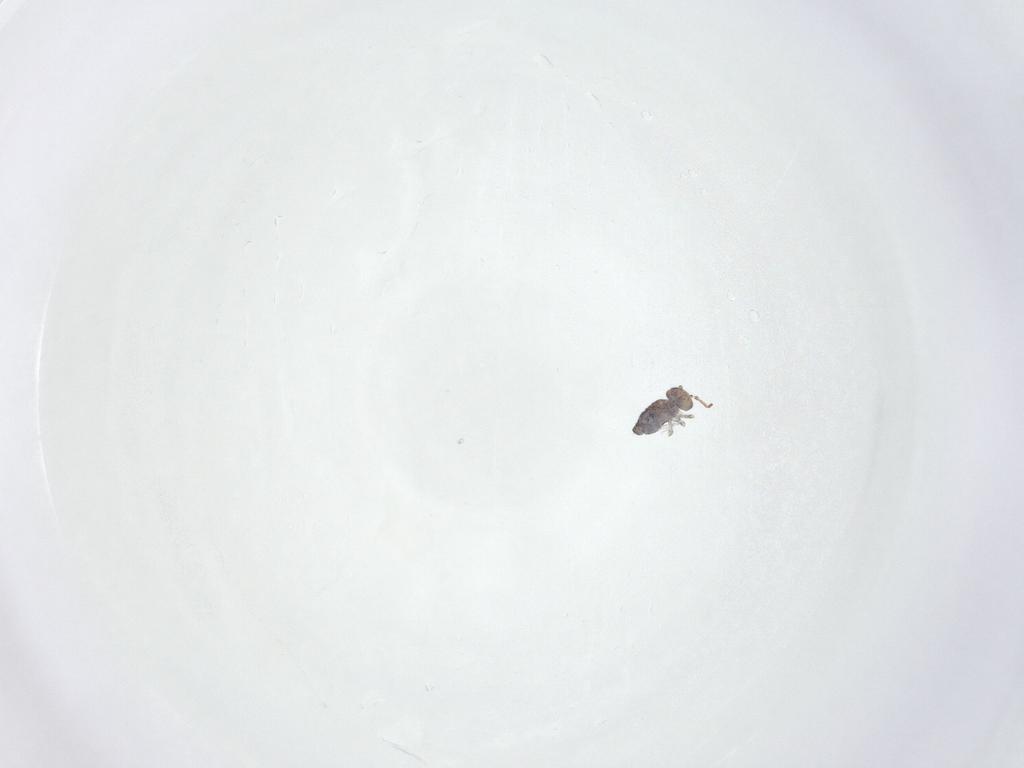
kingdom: Animalia
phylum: Arthropoda
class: Collembola
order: Symphypleona
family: Bourletiellidae
